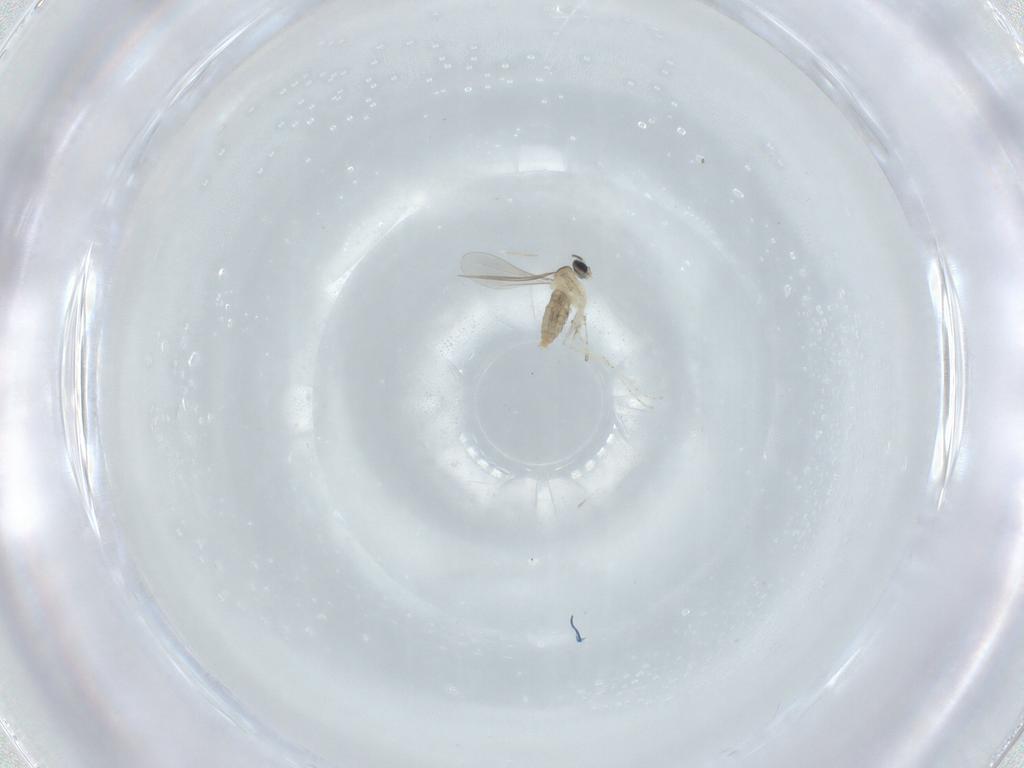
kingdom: Animalia
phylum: Arthropoda
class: Insecta
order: Diptera
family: Cecidomyiidae
